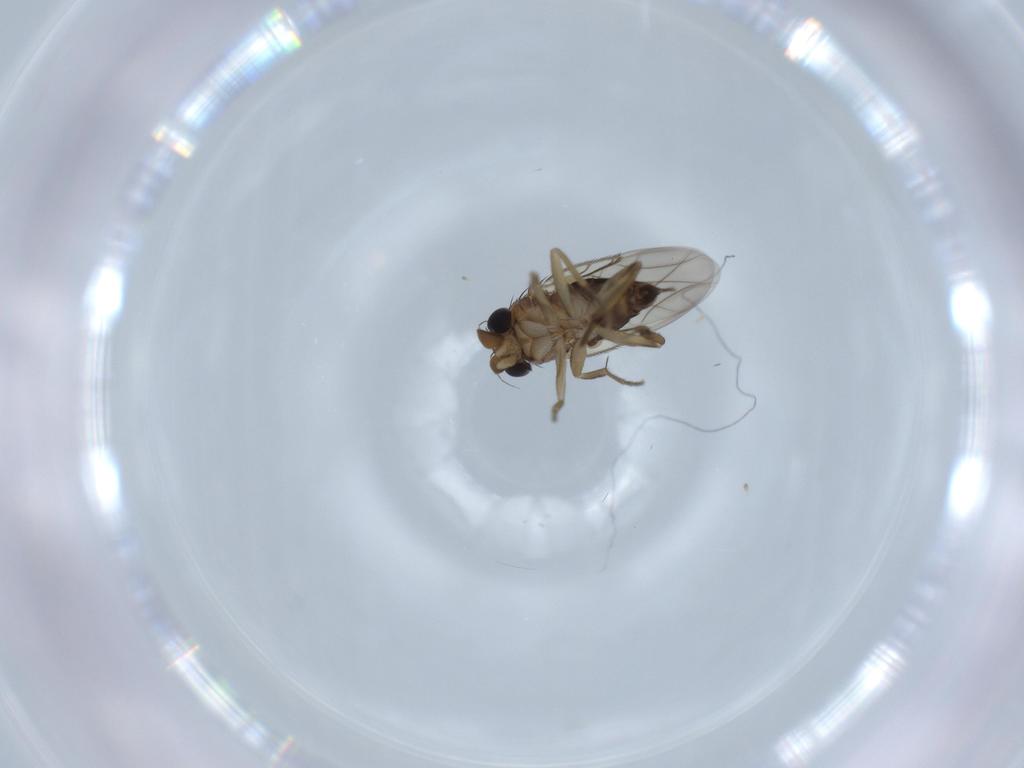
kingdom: Animalia
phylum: Arthropoda
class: Insecta
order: Diptera
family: Phoridae
